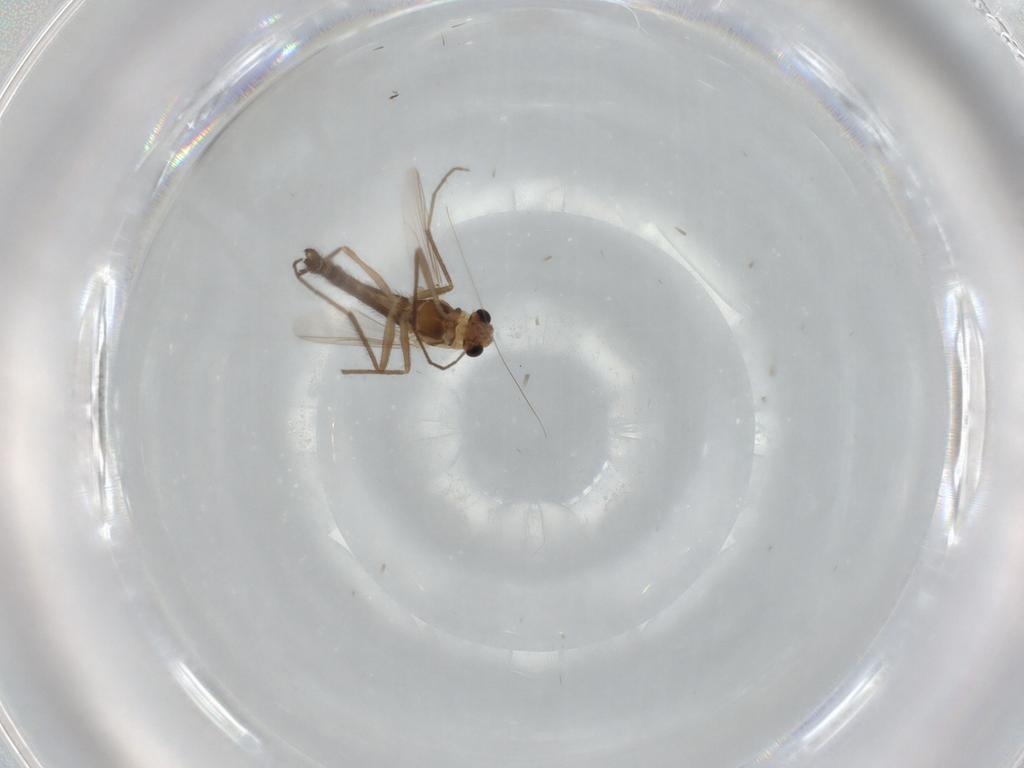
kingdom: Animalia
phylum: Arthropoda
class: Insecta
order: Diptera
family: Chironomidae
